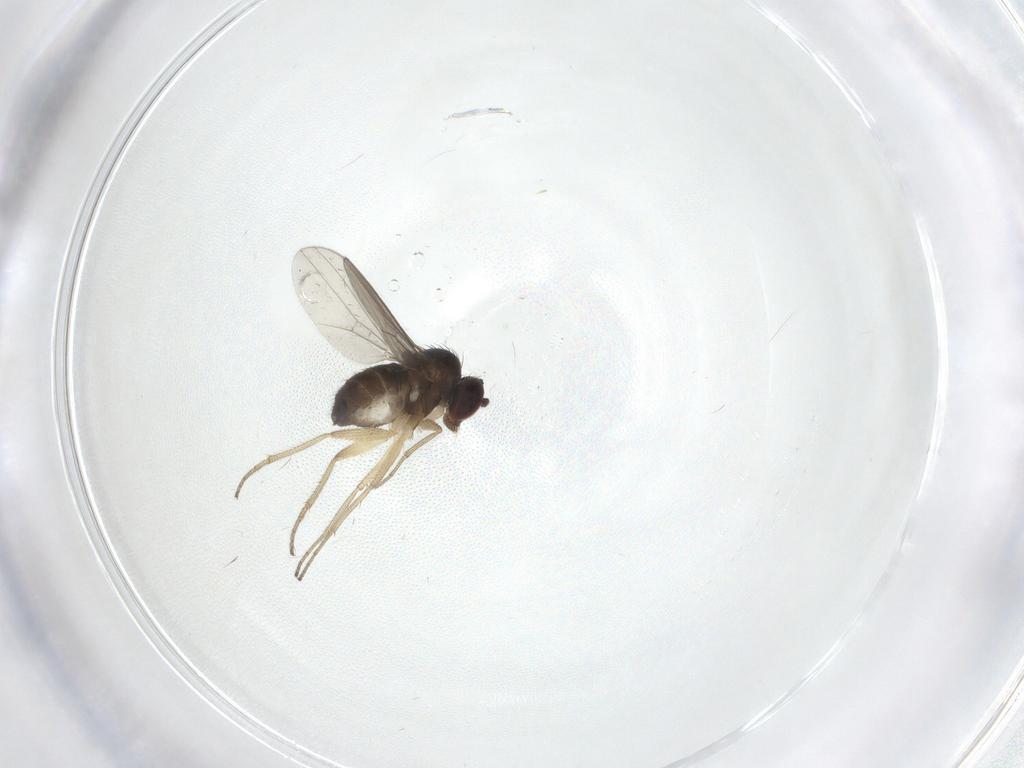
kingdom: Animalia
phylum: Arthropoda
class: Insecta
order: Diptera
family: Dolichopodidae
